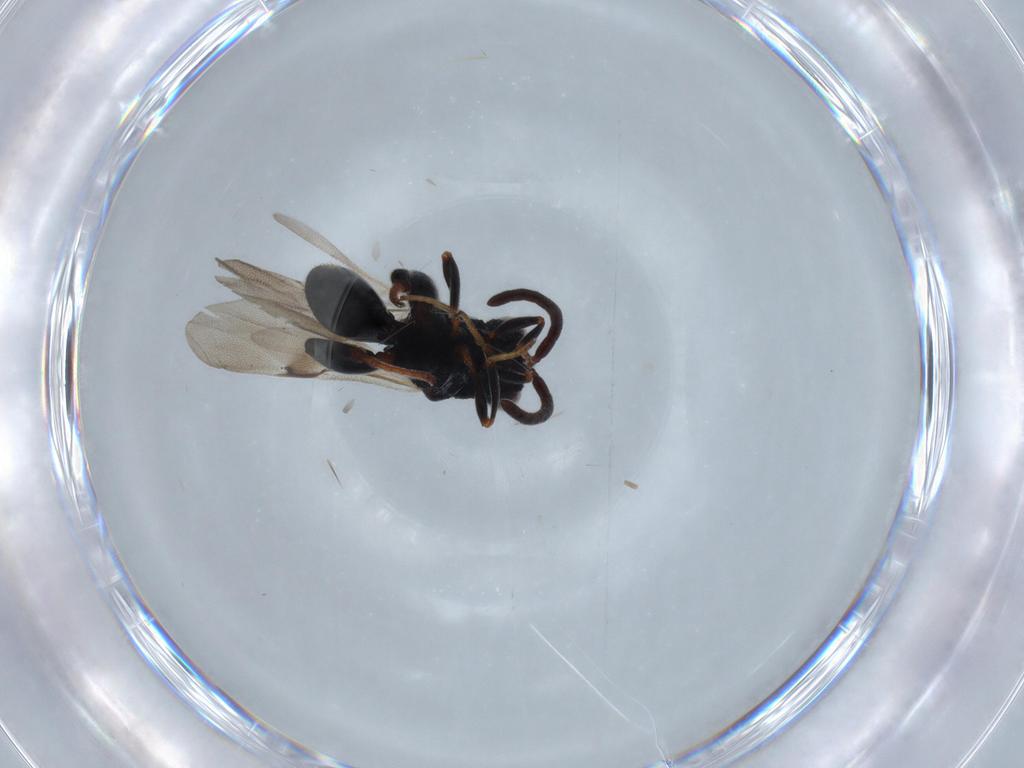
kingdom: Animalia
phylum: Arthropoda
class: Insecta
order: Hymenoptera
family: Chalcididae
